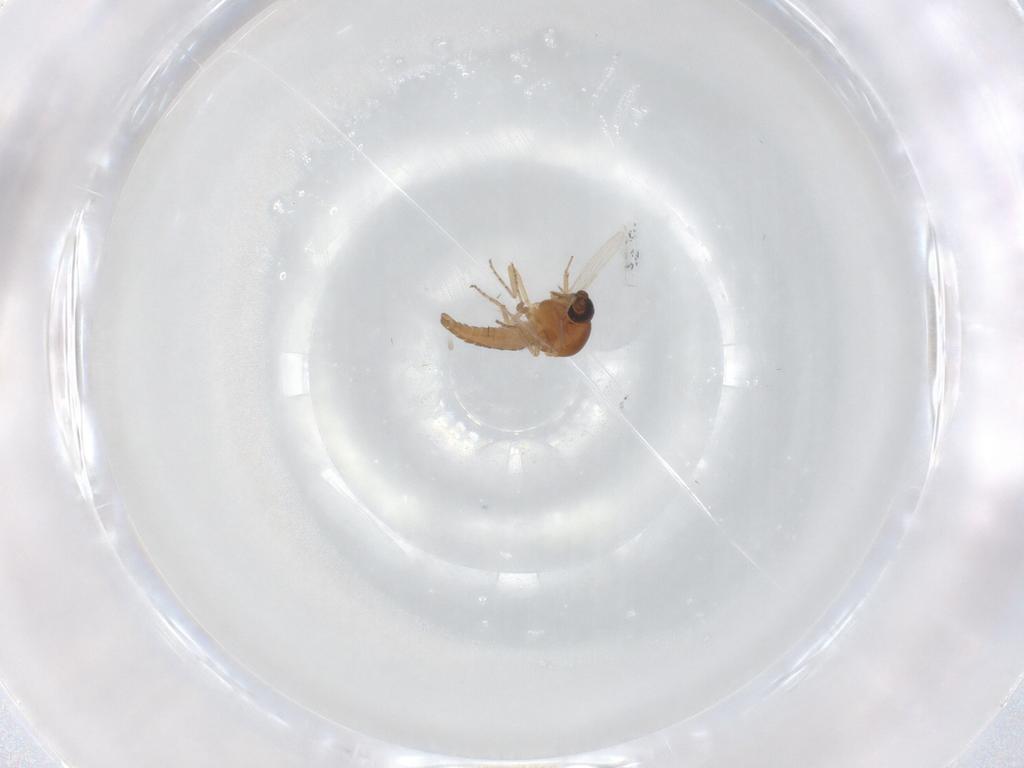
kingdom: Animalia
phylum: Arthropoda
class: Insecta
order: Diptera
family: Ceratopogonidae
